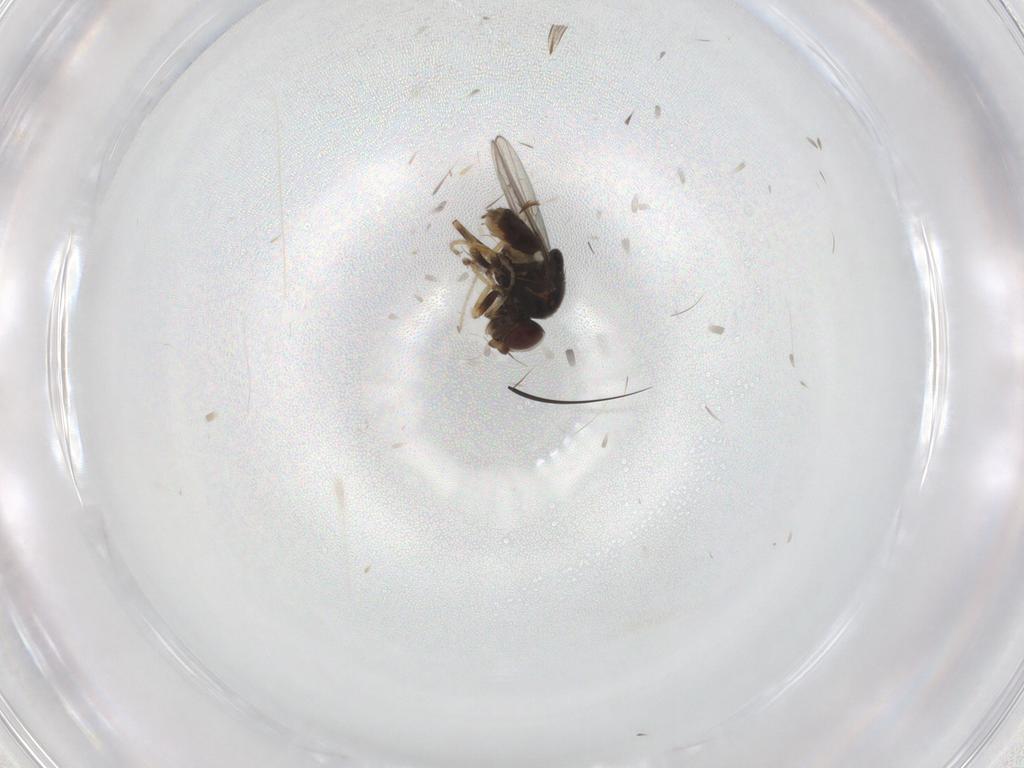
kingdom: Animalia
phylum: Arthropoda
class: Insecta
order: Diptera
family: Chloropidae
